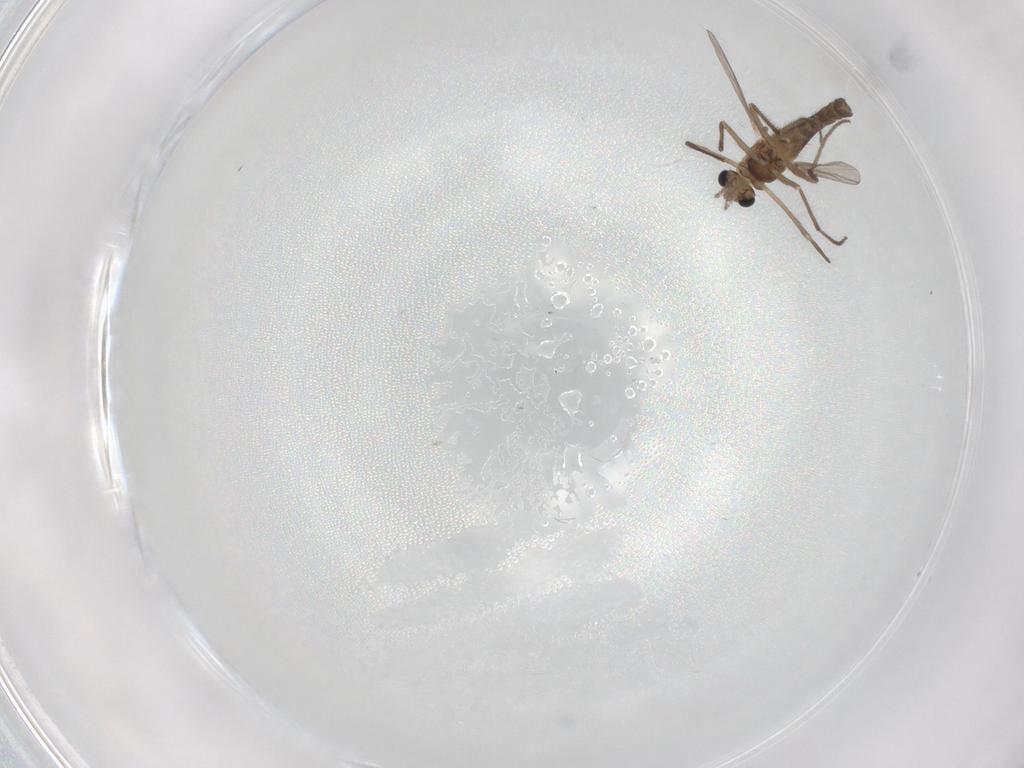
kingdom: Animalia
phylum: Arthropoda
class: Insecta
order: Diptera
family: Chironomidae
